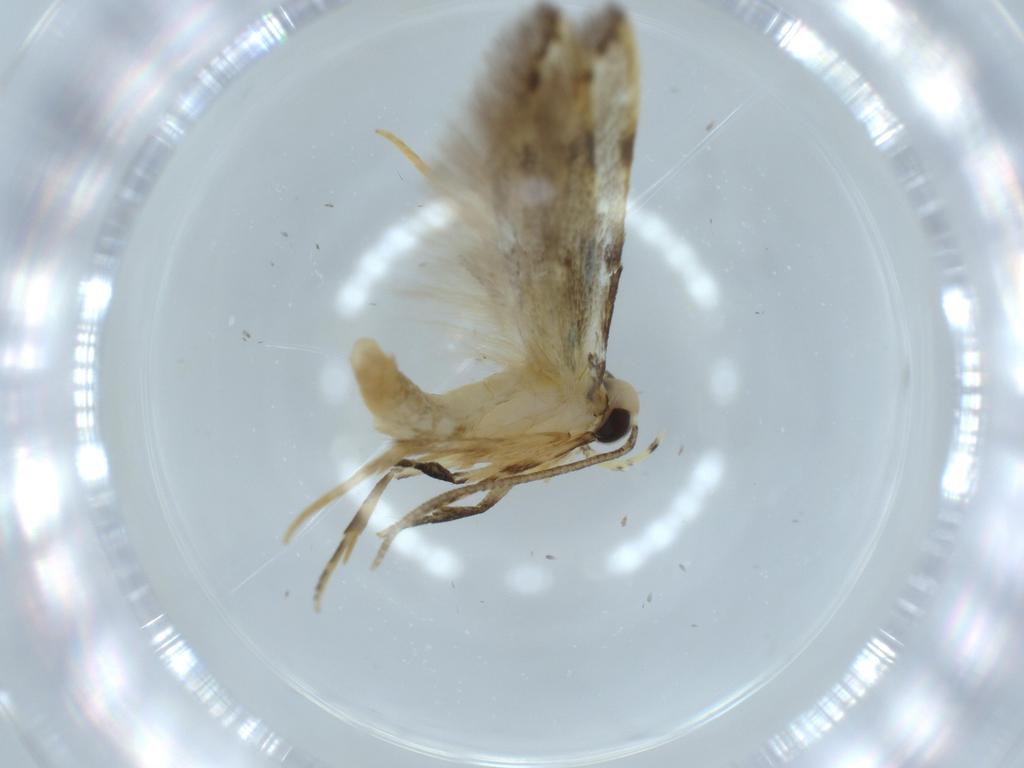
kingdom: Animalia
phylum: Arthropoda
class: Insecta
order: Lepidoptera
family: Autostichidae
